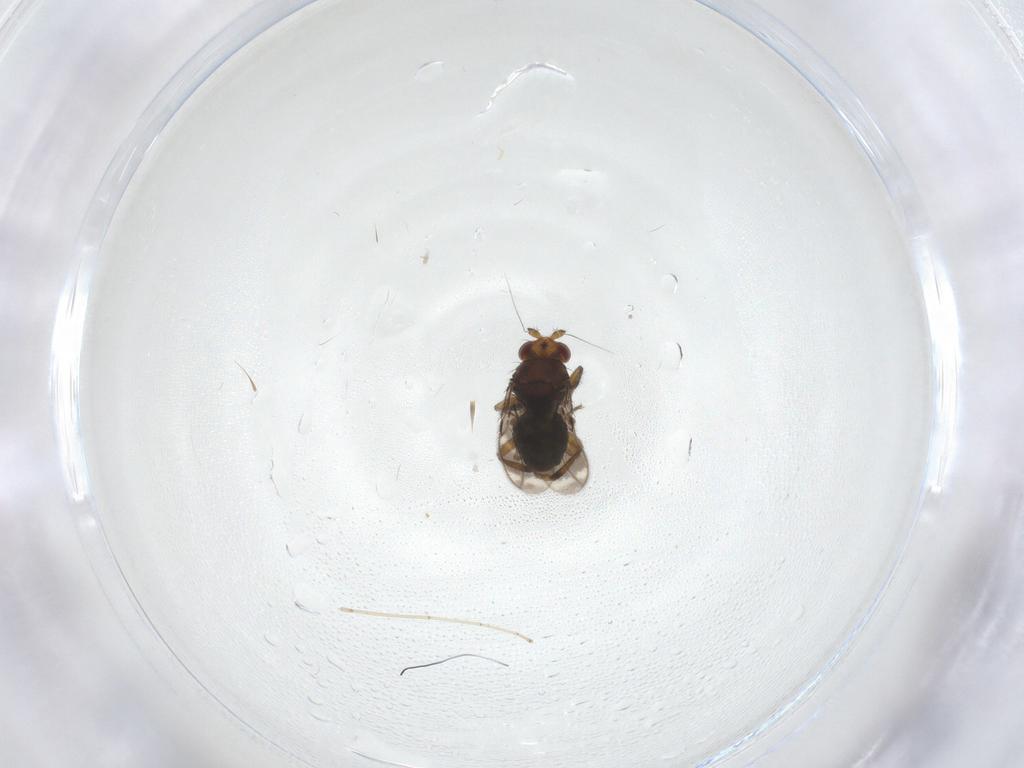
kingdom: Animalia
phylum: Arthropoda
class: Insecta
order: Diptera
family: Sphaeroceridae
